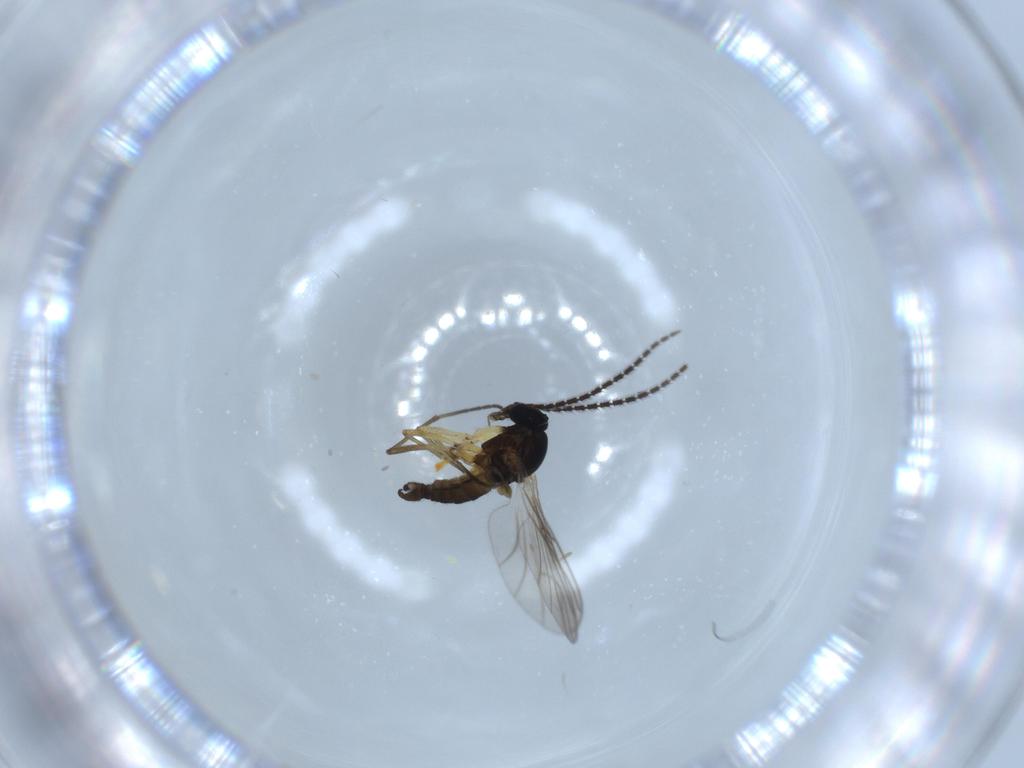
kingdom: Animalia
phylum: Arthropoda
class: Insecta
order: Diptera
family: Sciaridae
